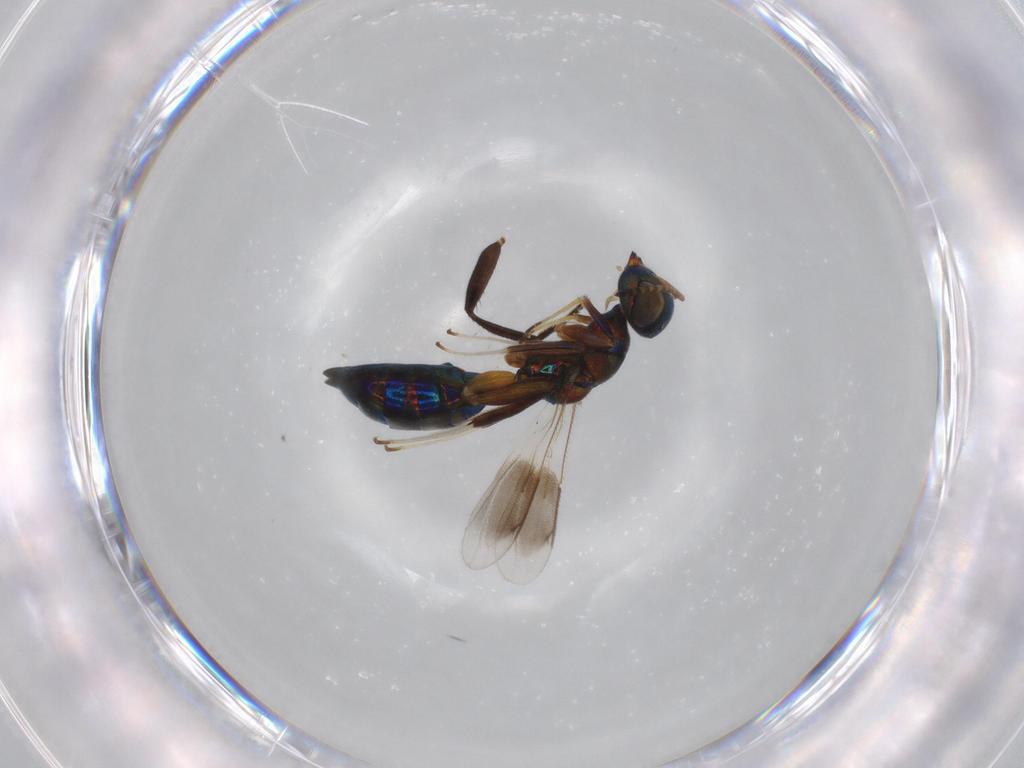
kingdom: Animalia
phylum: Arthropoda
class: Insecta
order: Hymenoptera
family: Cleonyminae
